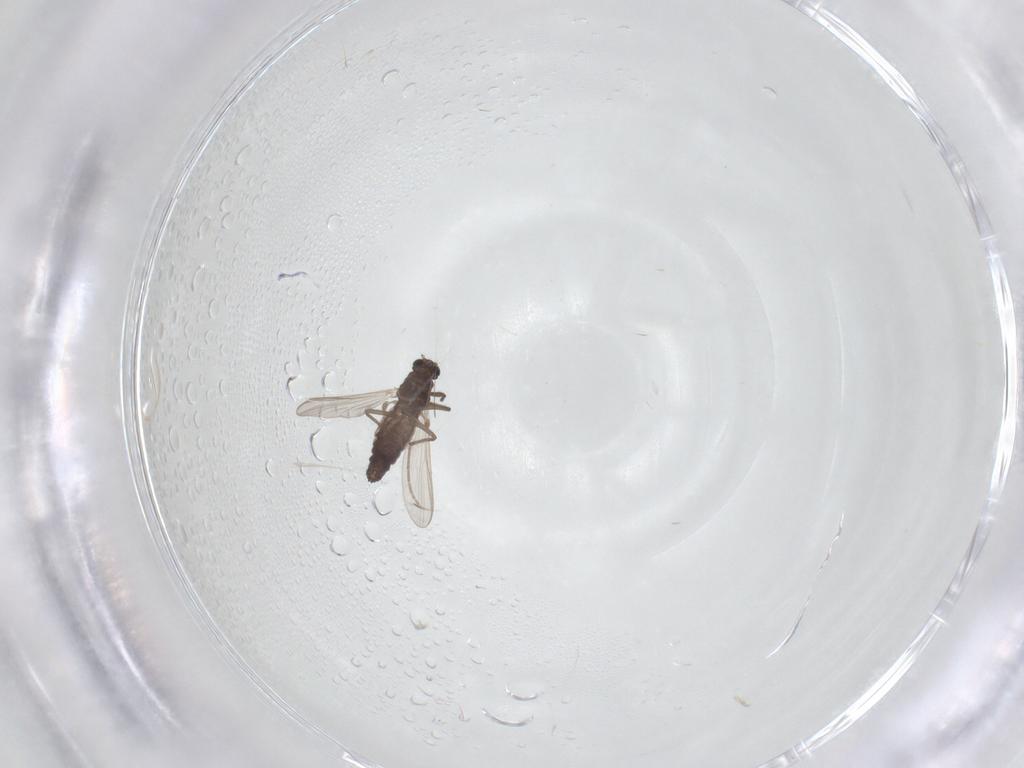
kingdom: Animalia
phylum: Arthropoda
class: Insecta
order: Diptera
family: Chironomidae
